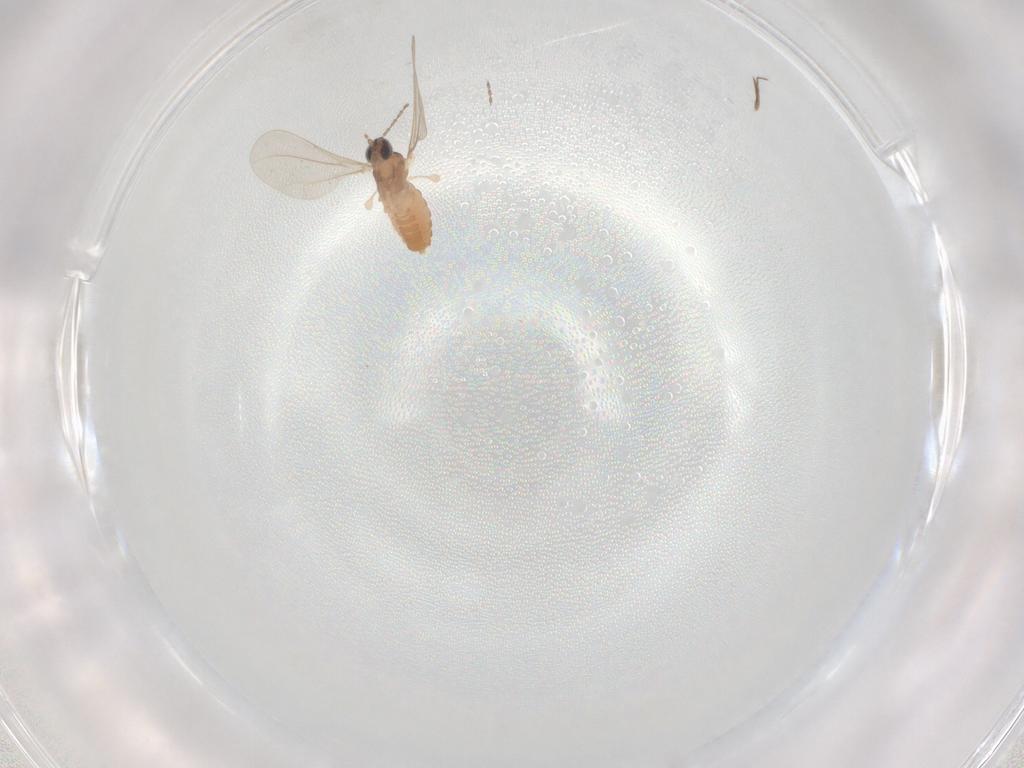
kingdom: Animalia
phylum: Arthropoda
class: Insecta
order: Diptera
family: Cecidomyiidae
